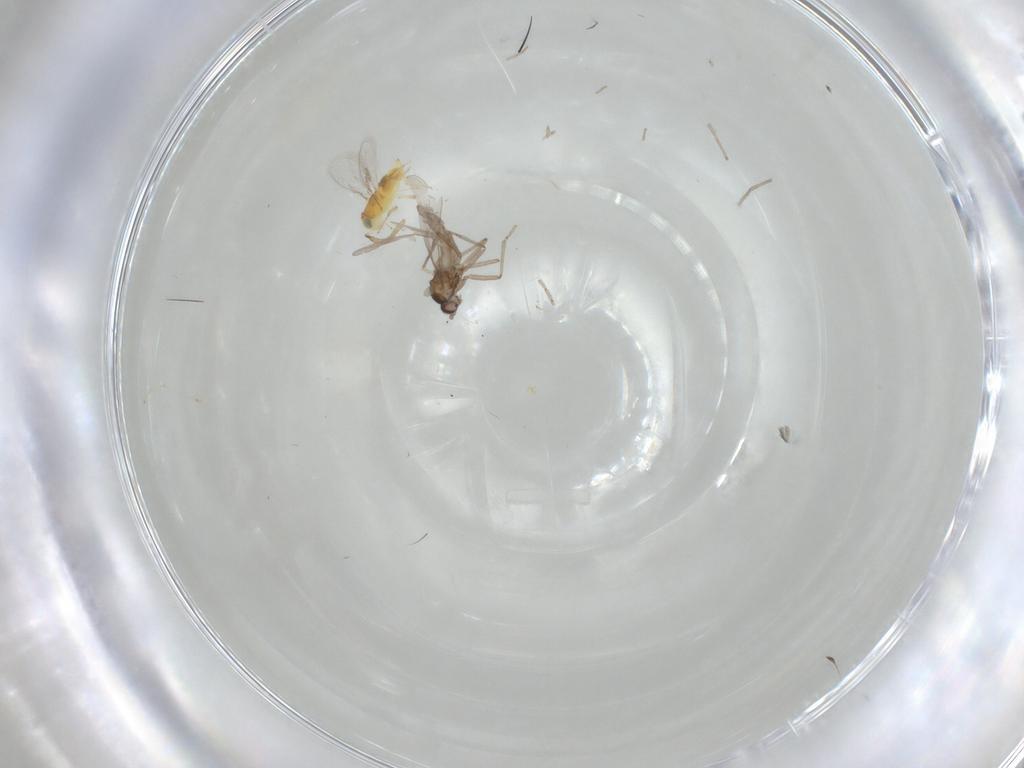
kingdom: Animalia
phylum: Arthropoda
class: Insecta
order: Diptera
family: Cecidomyiidae
